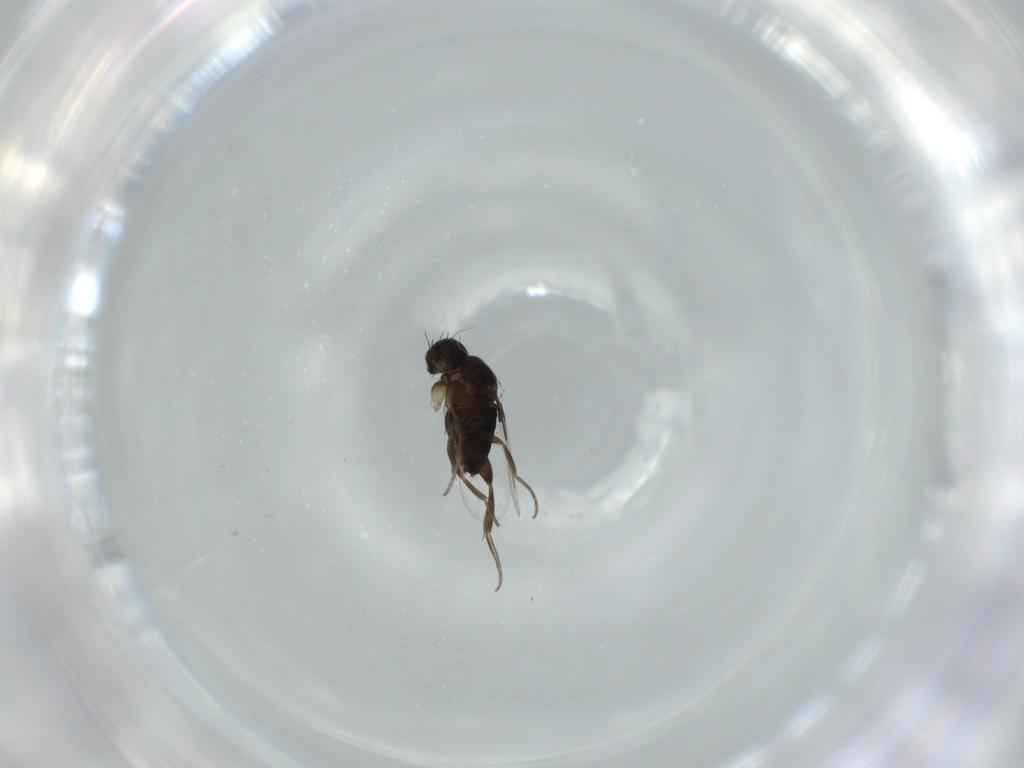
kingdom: Animalia
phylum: Arthropoda
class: Insecta
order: Diptera
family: Phoridae
